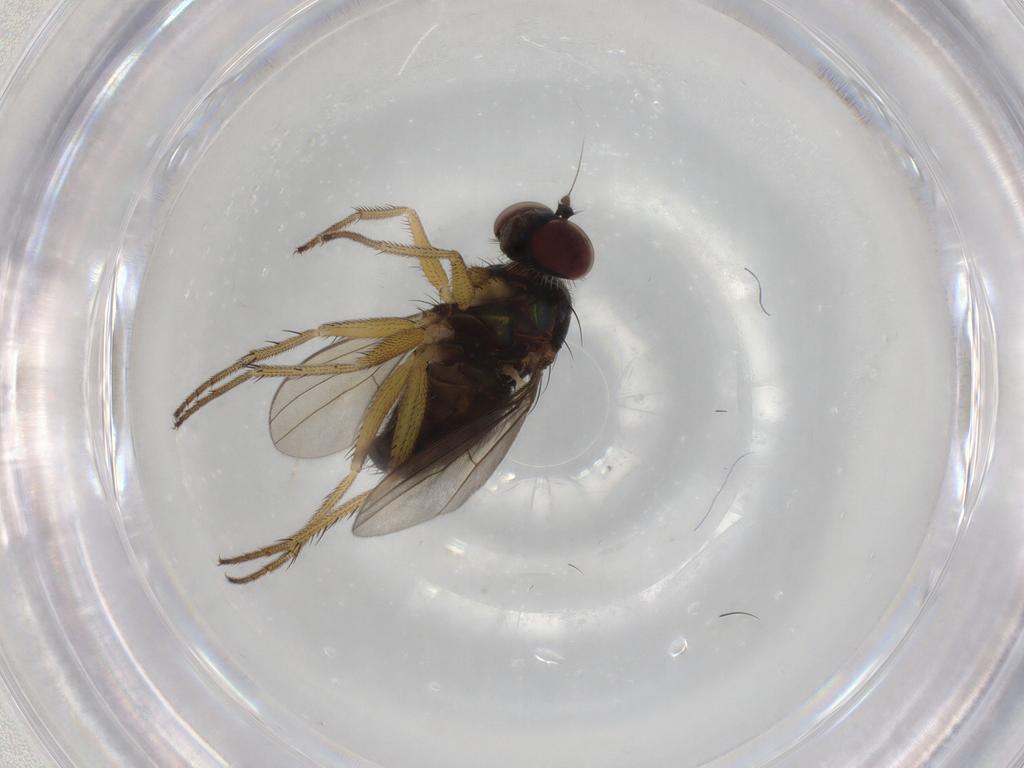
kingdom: Animalia
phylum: Arthropoda
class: Insecta
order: Diptera
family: Dolichopodidae
